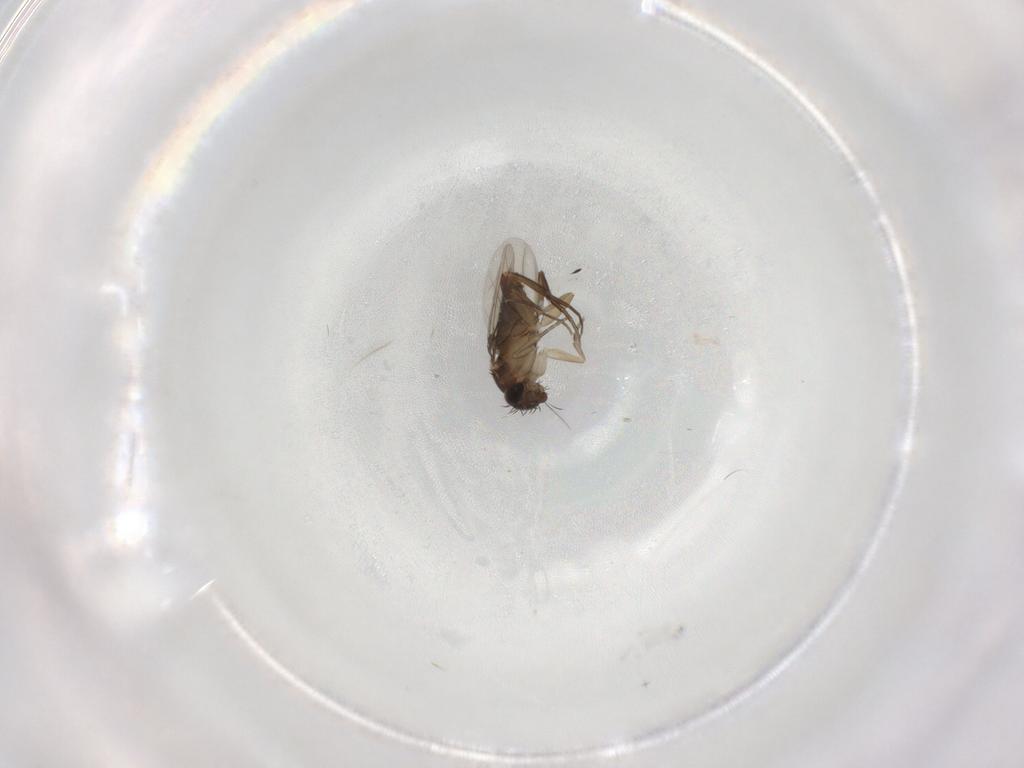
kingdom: Animalia
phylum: Arthropoda
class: Insecta
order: Diptera
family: Phoridae
